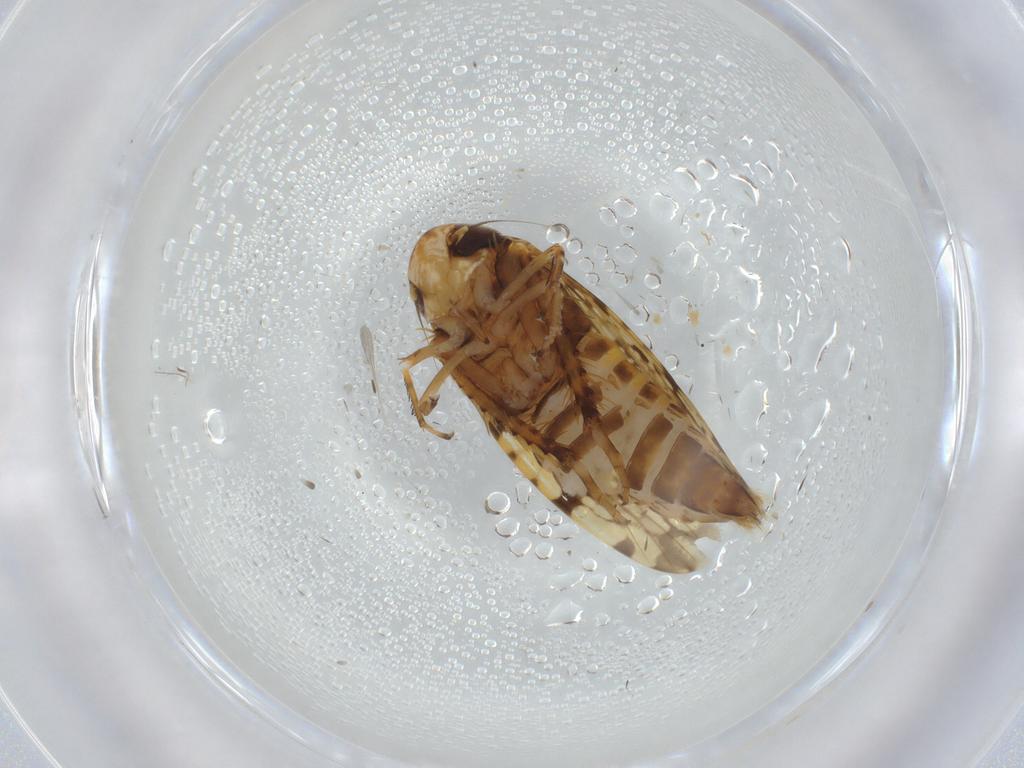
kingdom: Animalia
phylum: Arthropoda
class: Insecta
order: Hemiptera
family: Cicadellidae
